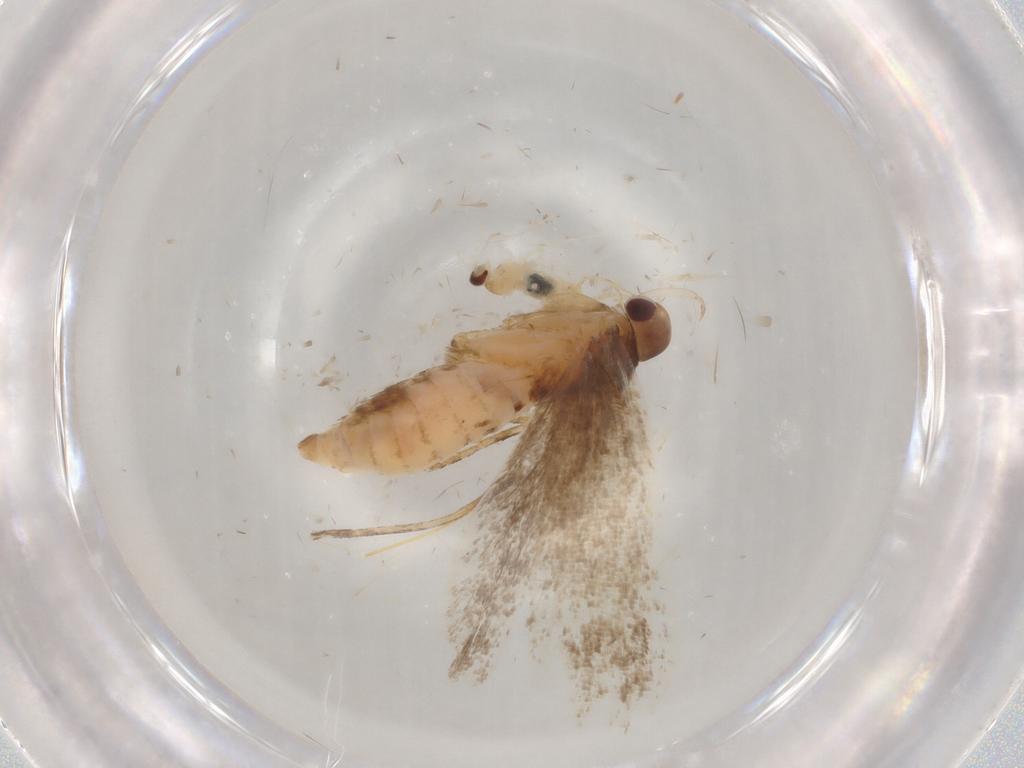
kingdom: Animalia
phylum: Arthropoda
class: Insecta
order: Lepidoptera
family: Gelechiidae
